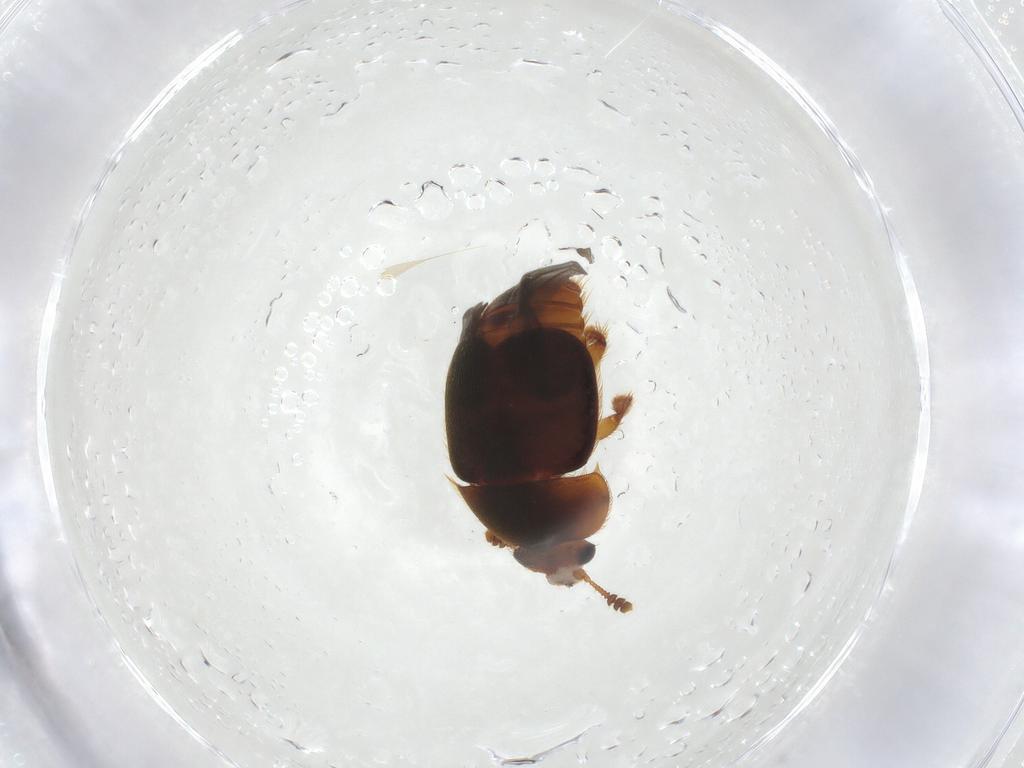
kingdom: Animalia
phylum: Arthropoda
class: Insecta
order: Coleoptera
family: Nitidulidae
